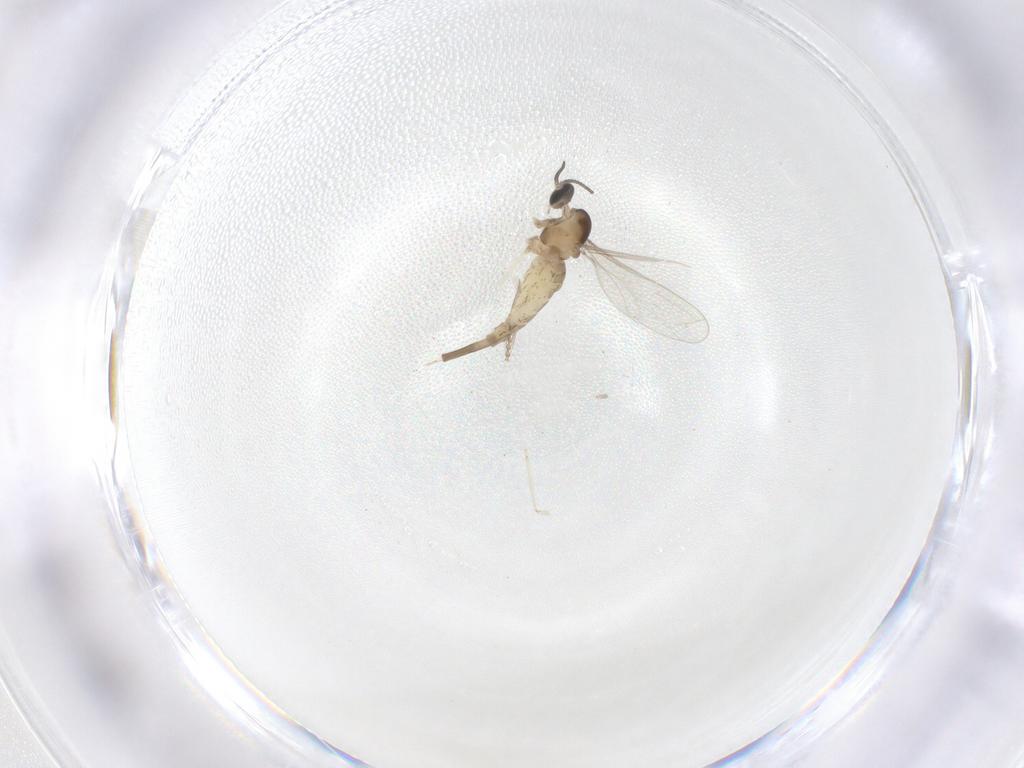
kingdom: Animalia
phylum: Arthropoda
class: Insecta
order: Diptera
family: Cecidomyiidae
